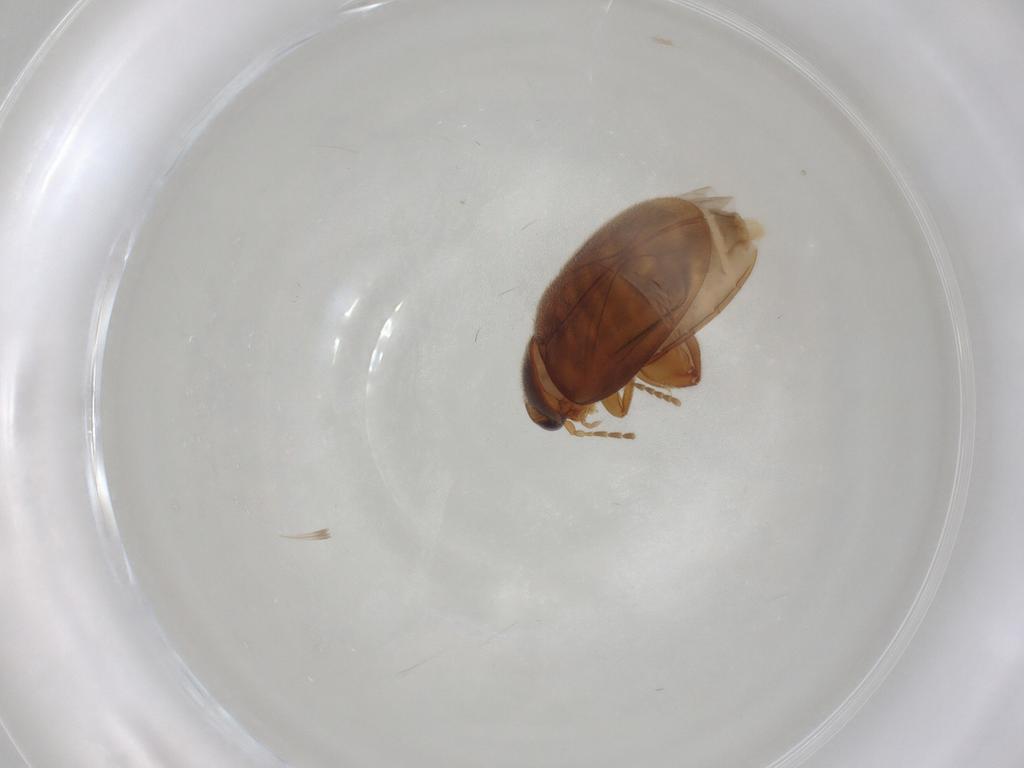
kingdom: Animalia
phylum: Arthropoda
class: Insecta
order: Coleoptera
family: Scirtidae
